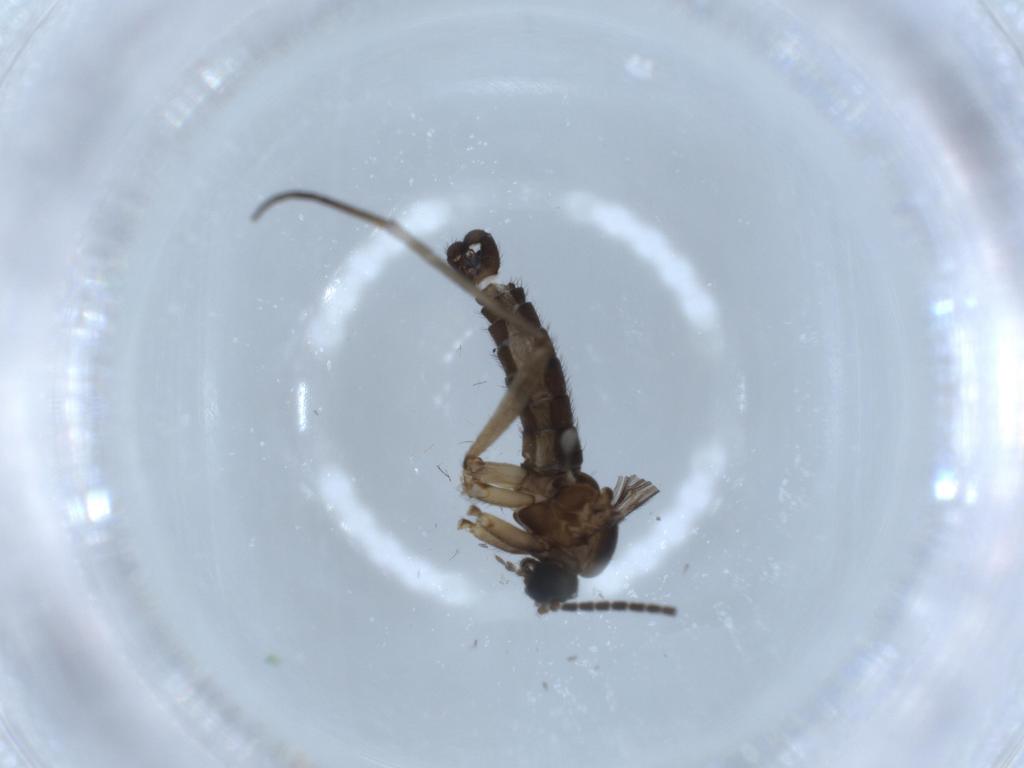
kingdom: Animalia
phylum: Arthropoda
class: Insecta
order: Diptera
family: Sciaridae
